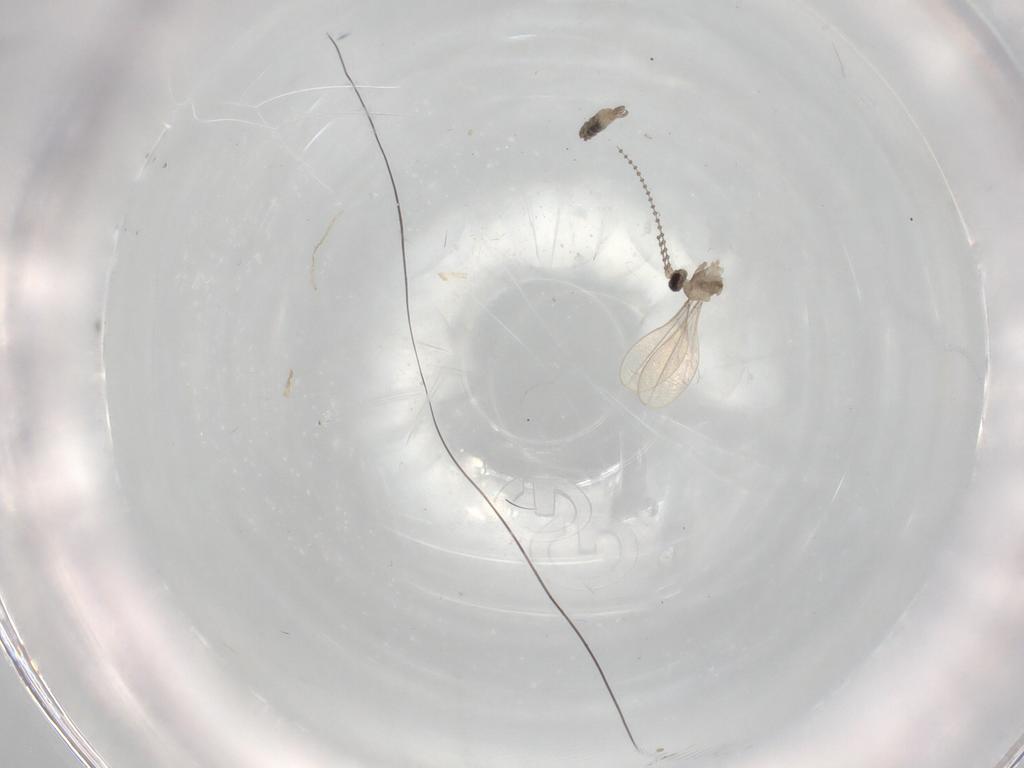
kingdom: Animalia
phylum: Arthropoda
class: Insecta
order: Diptera
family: Cecidomyiidae
